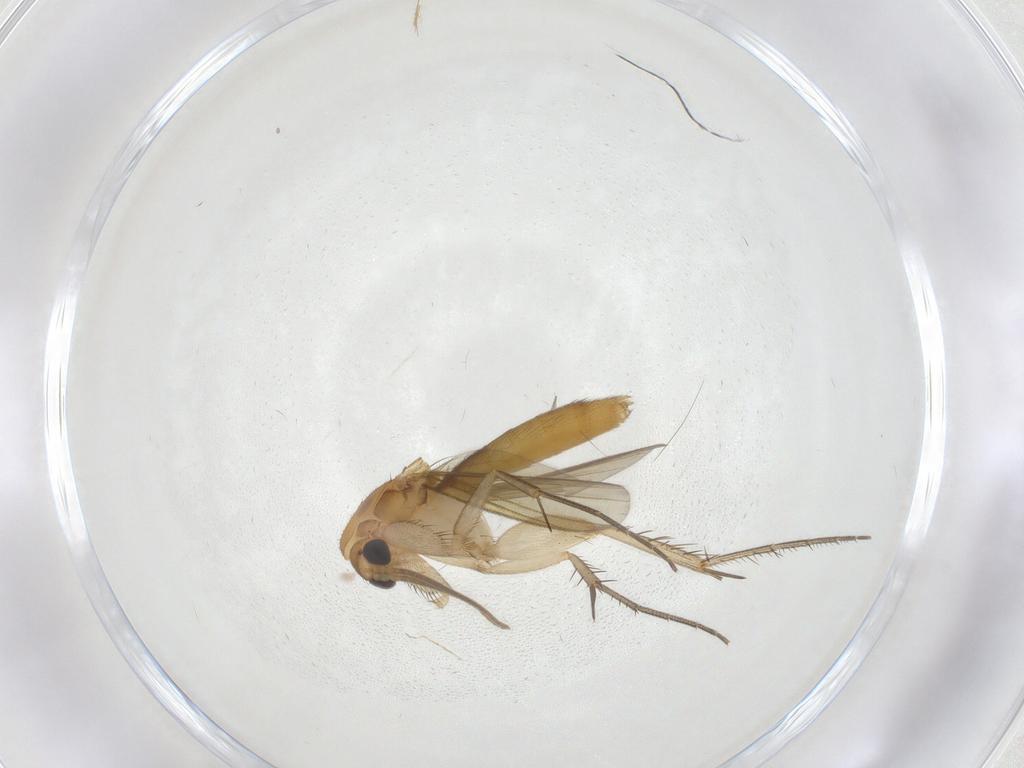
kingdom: Animalia
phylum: Arthropoda
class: Insecta
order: Diptera
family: Mycetophilidae
